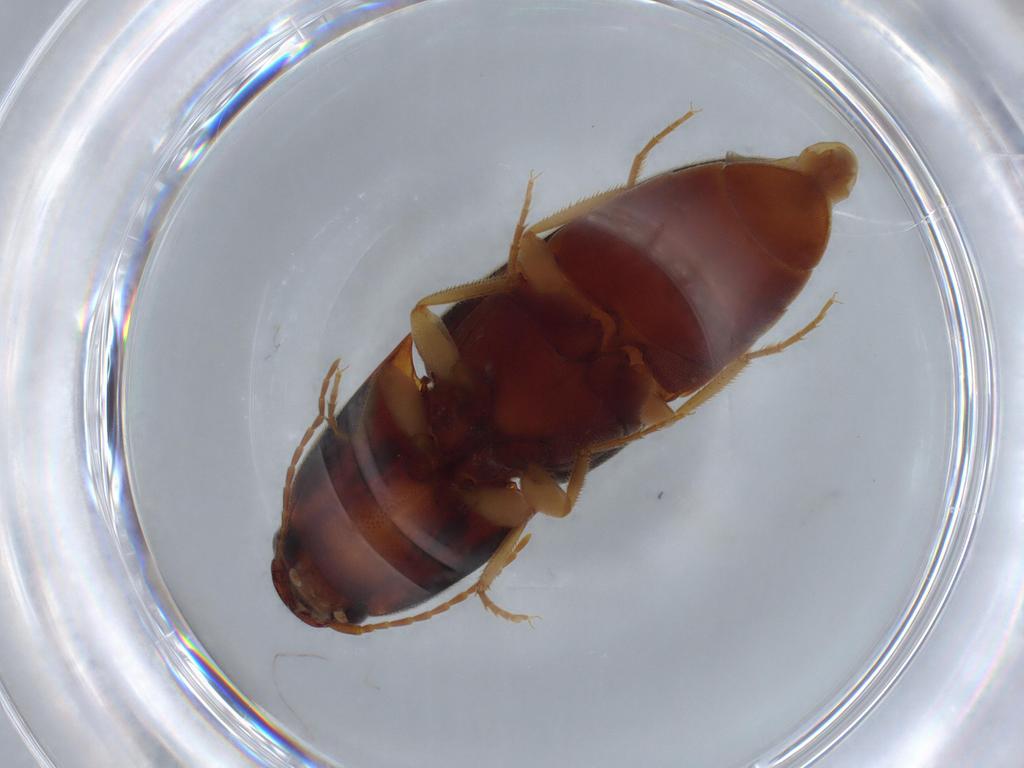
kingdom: Animalia
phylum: Arthropoda
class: Insecta
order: Coleoptera
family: Elateridae
